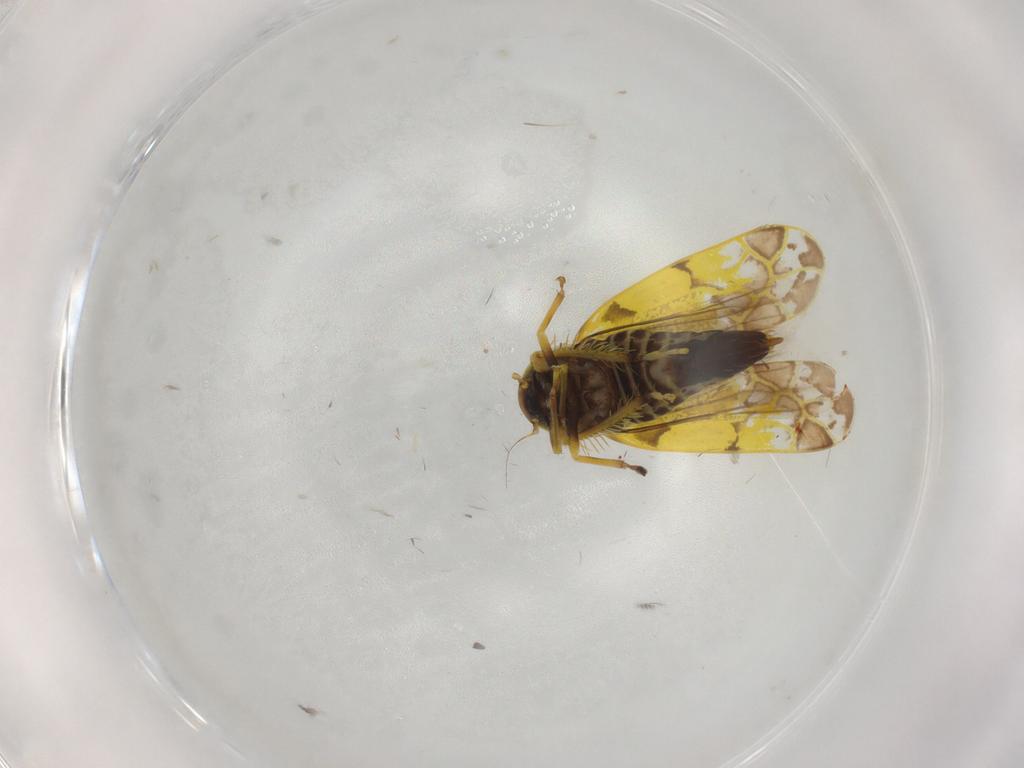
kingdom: Animalia
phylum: Arthropoda
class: Insecta
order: Hemiptera
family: Cicadellidae
